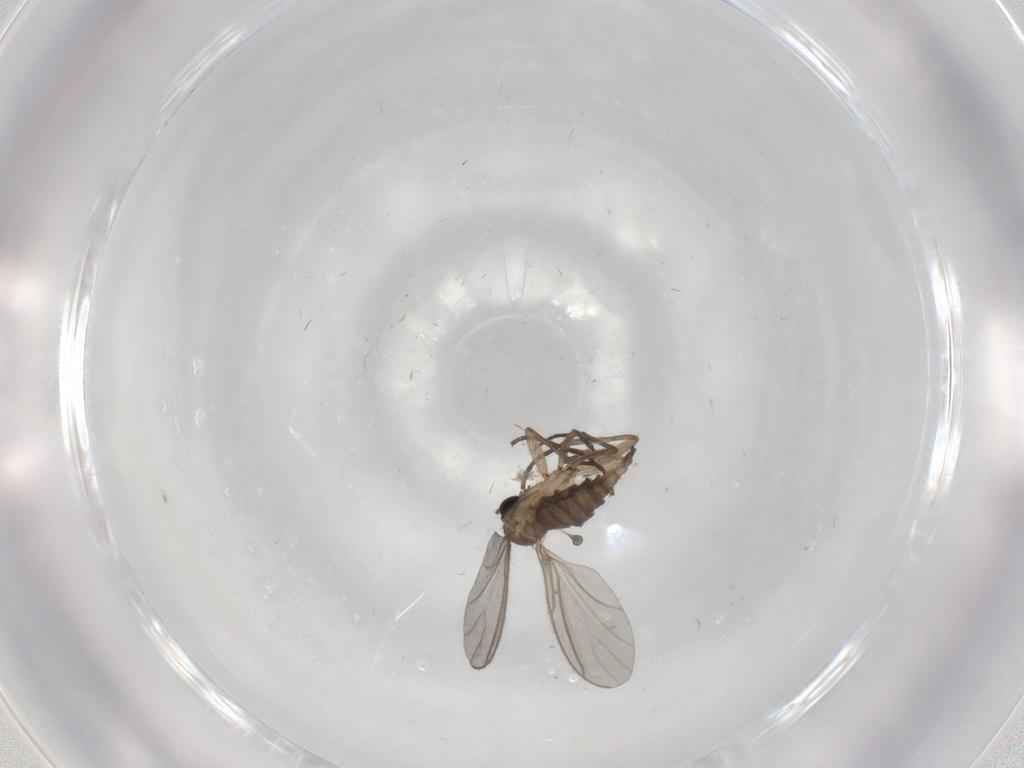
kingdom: Animalia
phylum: Arthropoda
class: Insecta
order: Diptera
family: Sciaridae
